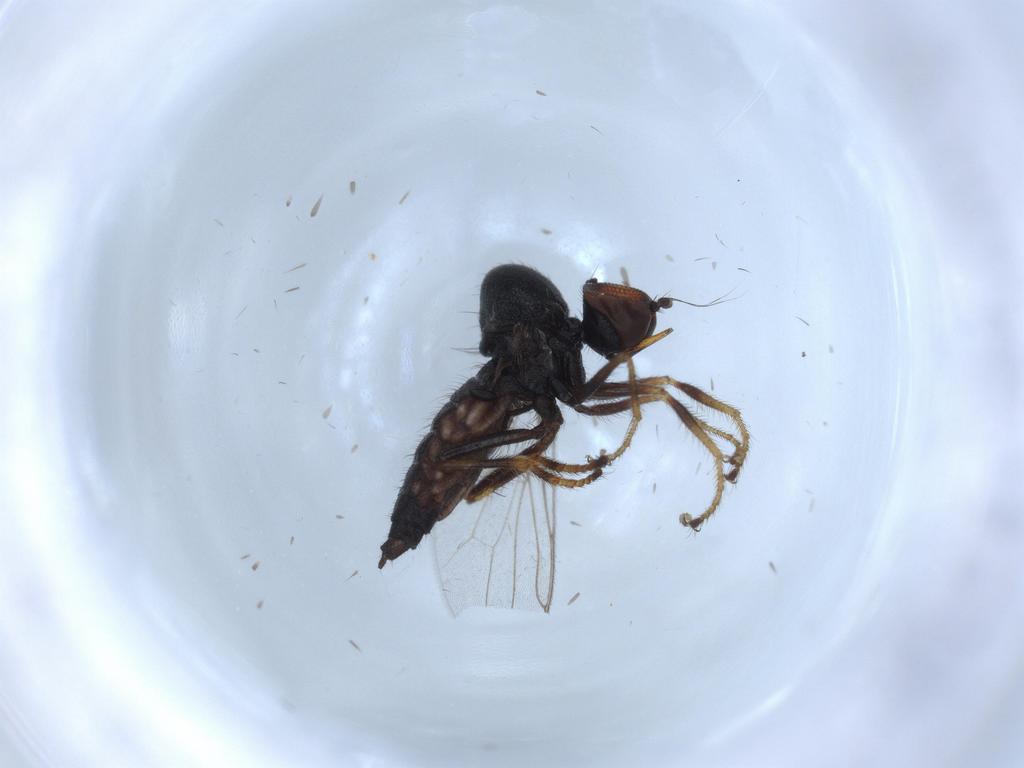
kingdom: Animalia
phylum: Arthropoda
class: Insecta
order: Diptera
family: Hybotidae
